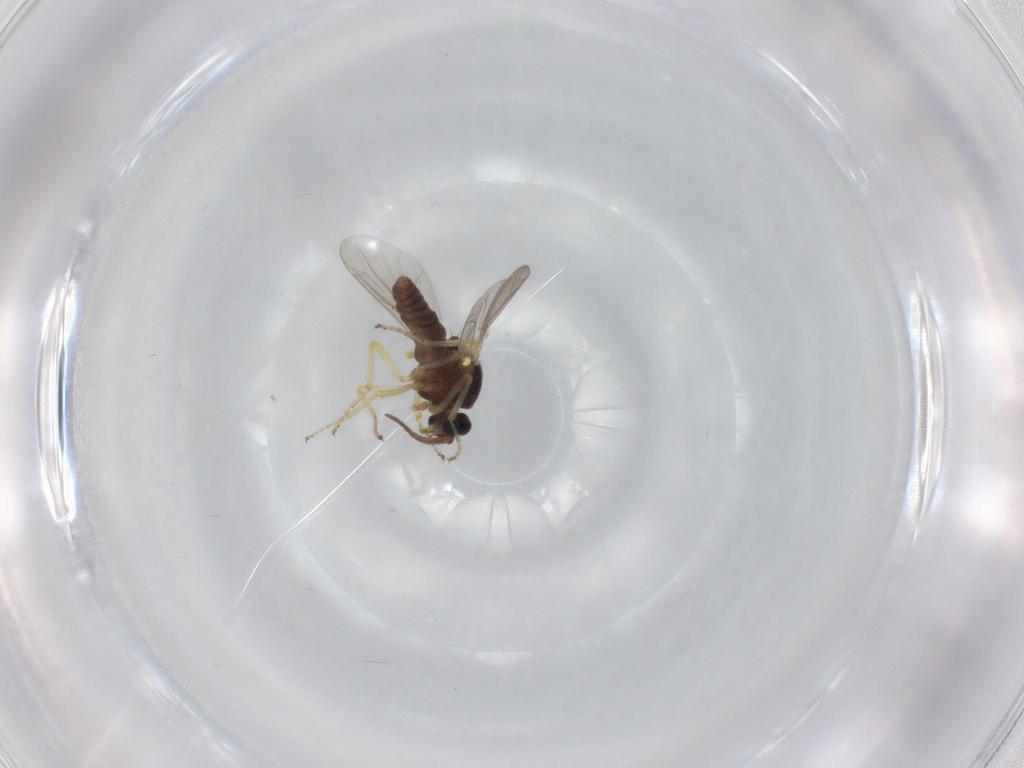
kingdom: Animalia
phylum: Arthropoda
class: Insecta
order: Diptera
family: Ceratopogonidae
